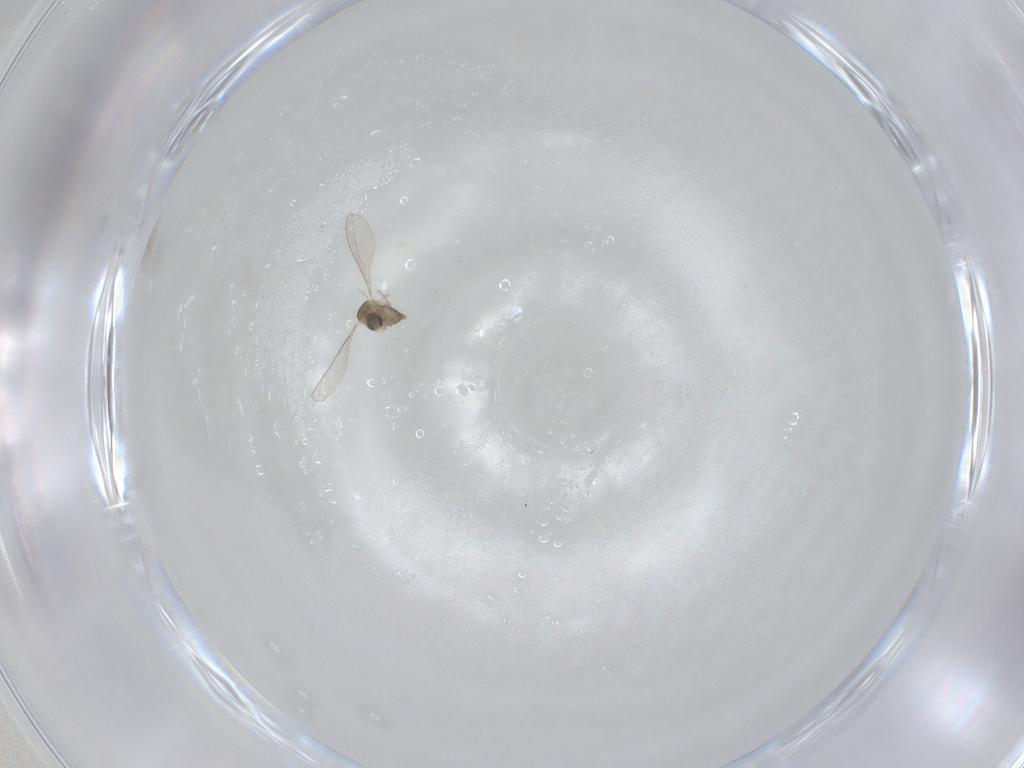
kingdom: Animalia
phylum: Arthropoda
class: Insecta
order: Diptera
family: Cecidomyiidae
